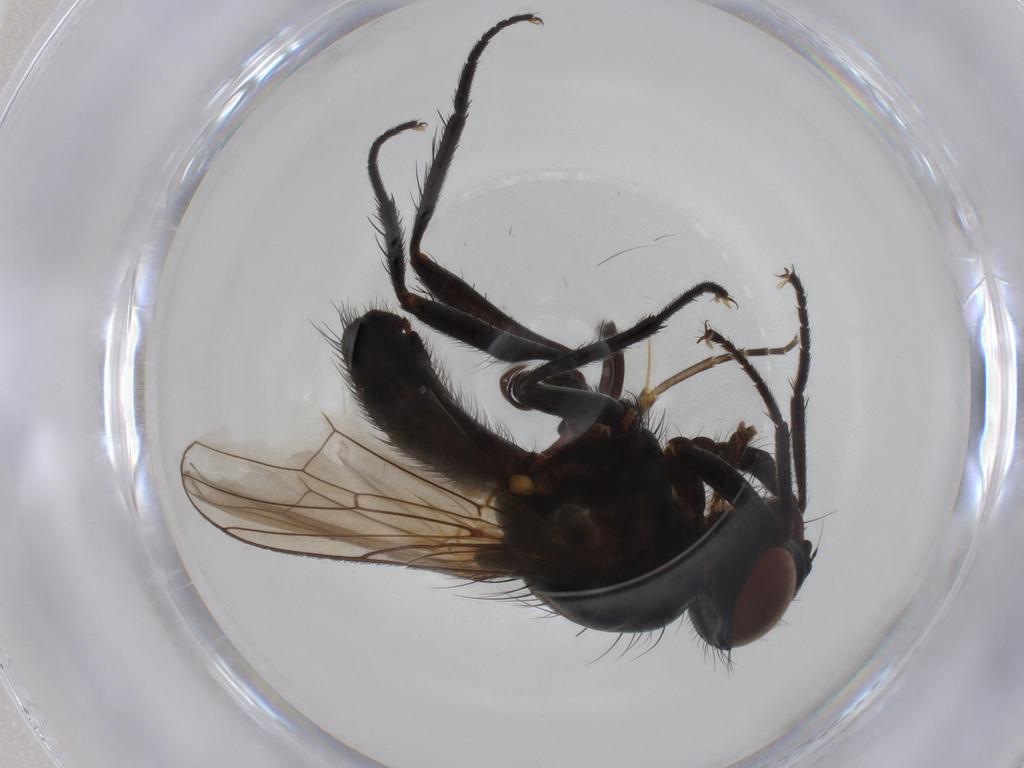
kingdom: Animalia
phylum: Arthropoda
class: Insecta
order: Diptera
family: Anthomyiidae
